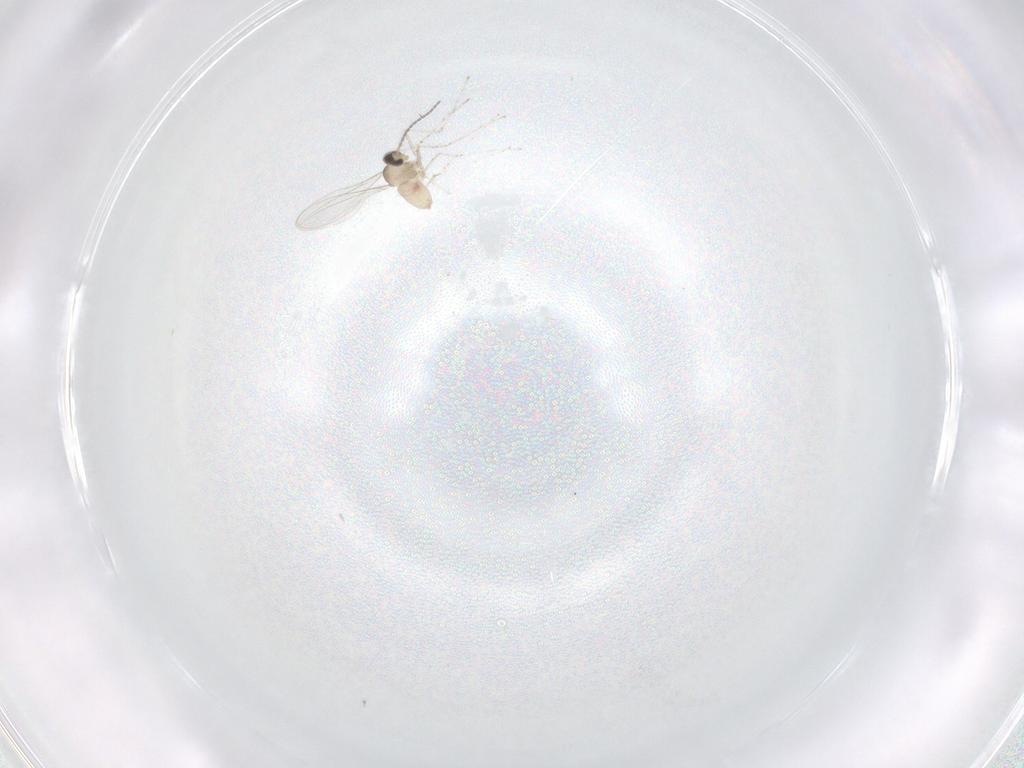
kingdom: Animalia
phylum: Arthropoda
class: Insecta
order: Diptera
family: Cecidomyiidae
